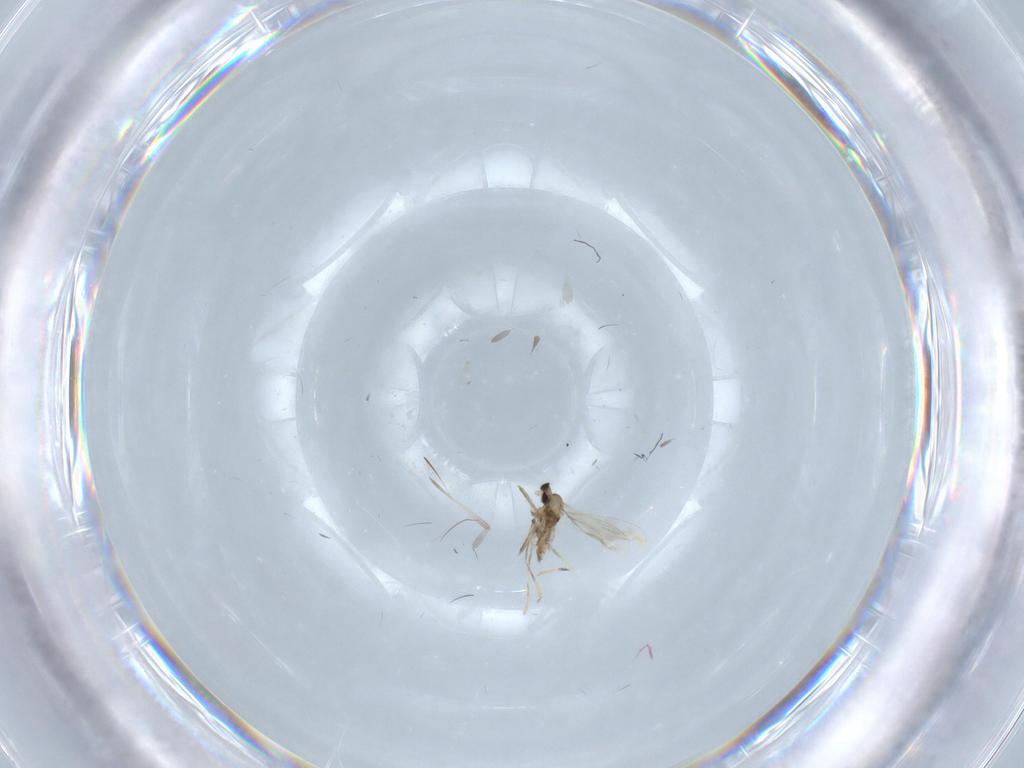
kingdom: Animalia
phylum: Arthropoda
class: Insecta
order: Diptera
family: Cecidomyiidae
